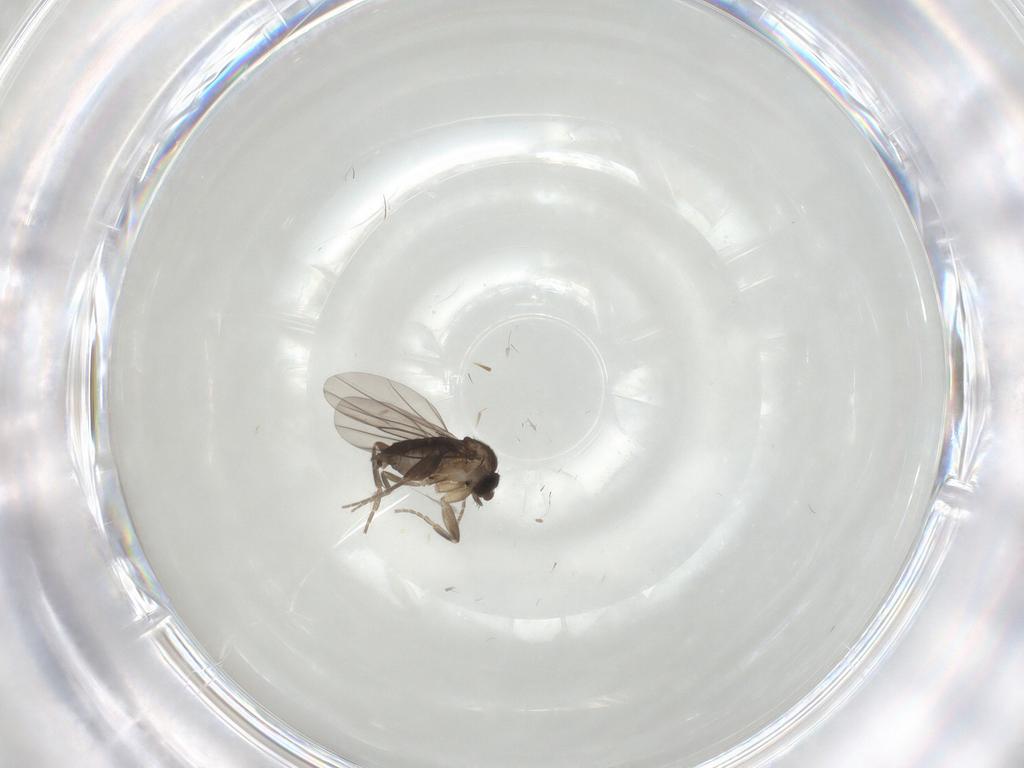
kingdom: Animalia
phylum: Arthropoda
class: Insecta
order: Diptera
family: Phoridae
